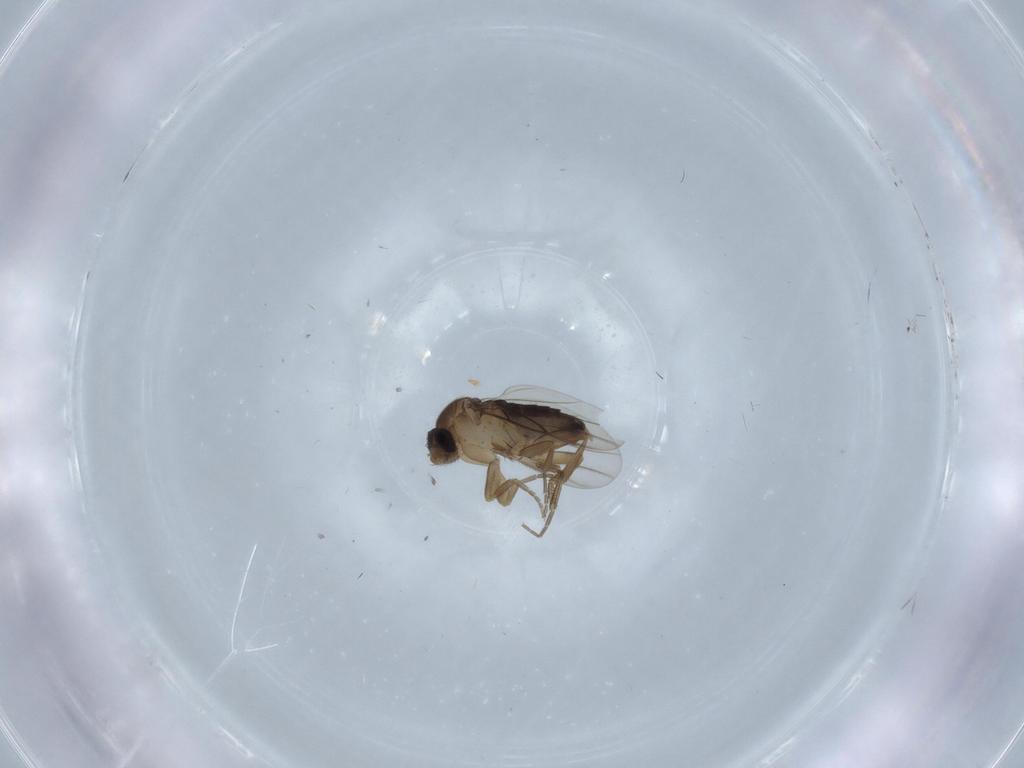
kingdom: Animalia
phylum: Arthropoda
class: Insecta
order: Diptera
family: Phoridae
